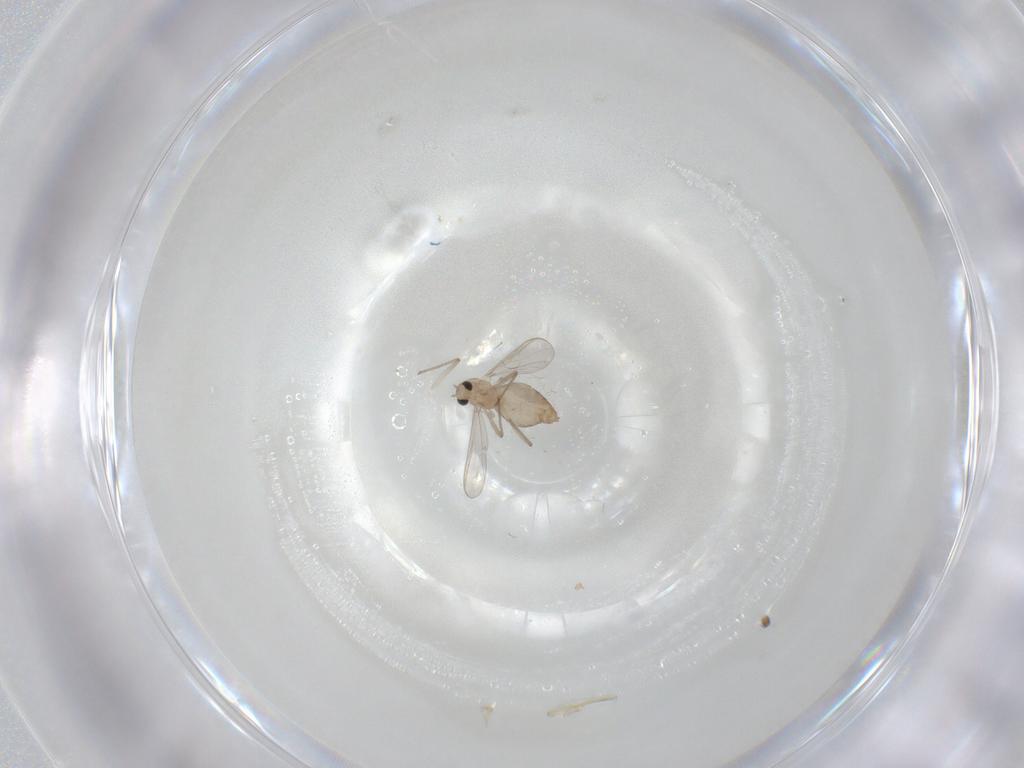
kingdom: Animalia
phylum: Arthropoda
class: Insecta
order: Diptera
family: Chironomidae
